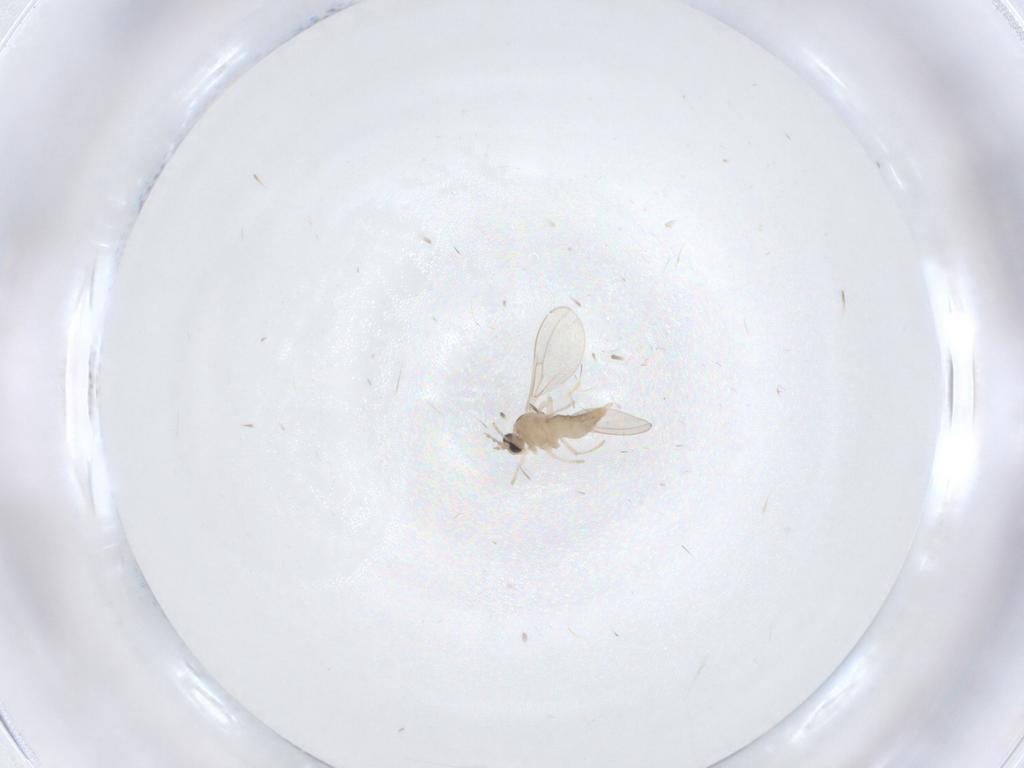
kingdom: Animalia
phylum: Arthropoda
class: Insecta
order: Diptera
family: Cecidomyiidae
